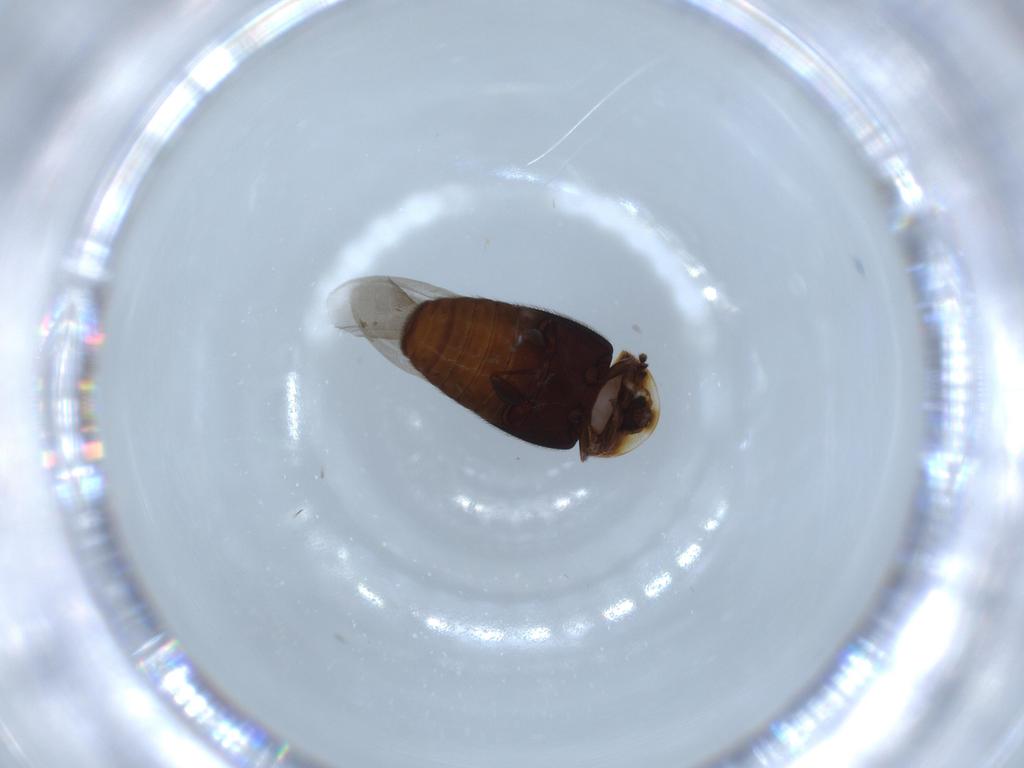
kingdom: Animalia
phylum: Arthropoda
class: Insecta
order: Coleoptera
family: Corylophidae
